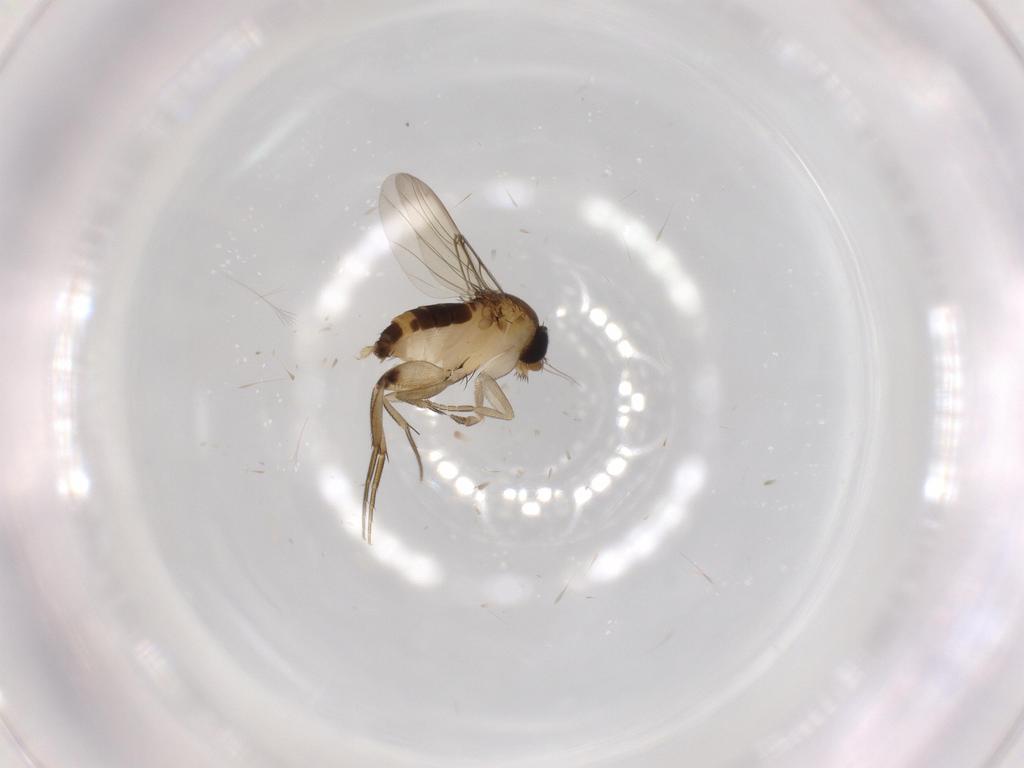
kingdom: Animalia
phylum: Arthropoda
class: Insecta
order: Diptera
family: Phoridae
